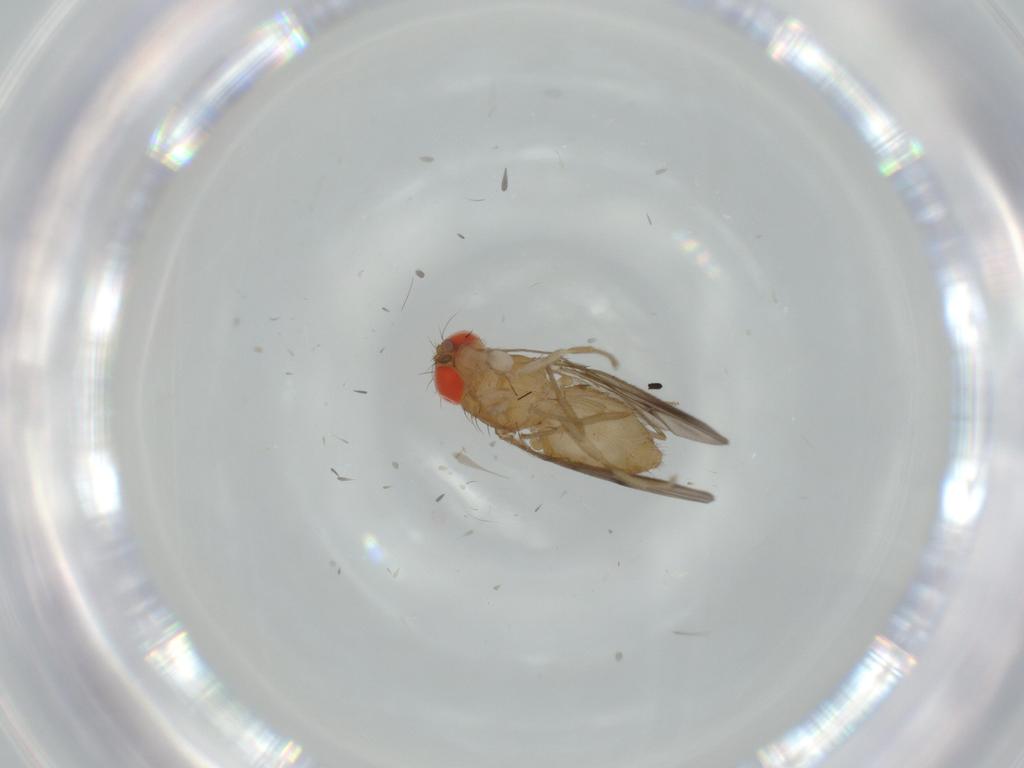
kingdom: Animalia
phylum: Arthropoda
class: Insecta
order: Diptera
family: Drosophilidae
